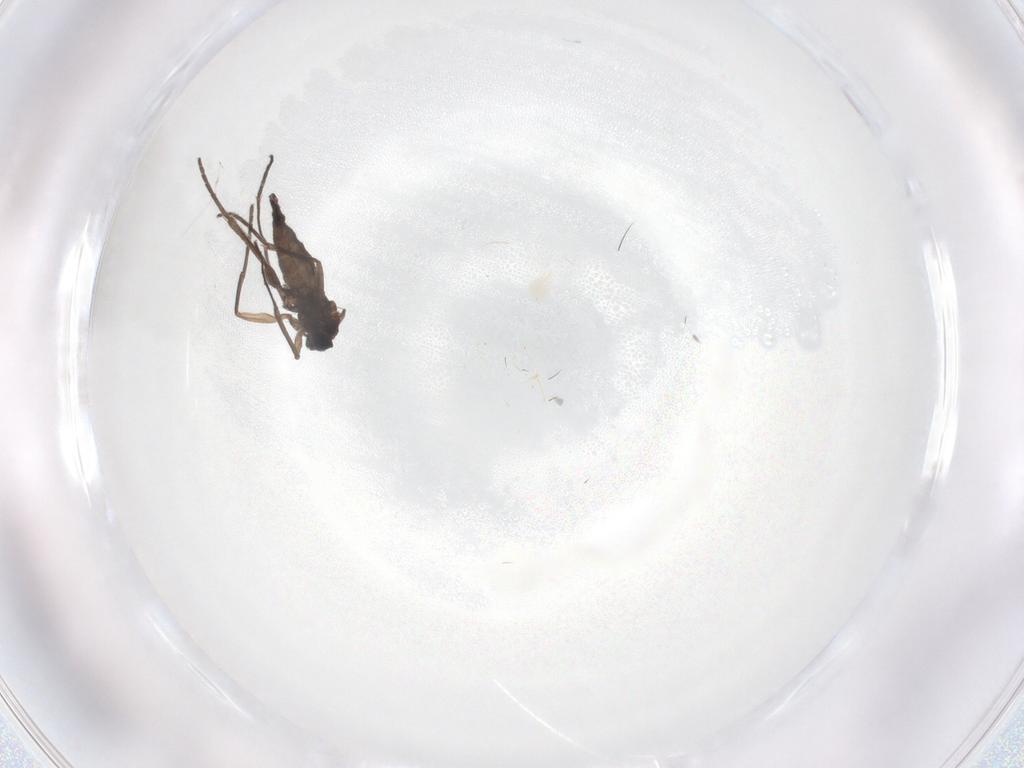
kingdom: Animalia
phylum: Arthropoda
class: Insecta
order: Diptera
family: Sciaridae
